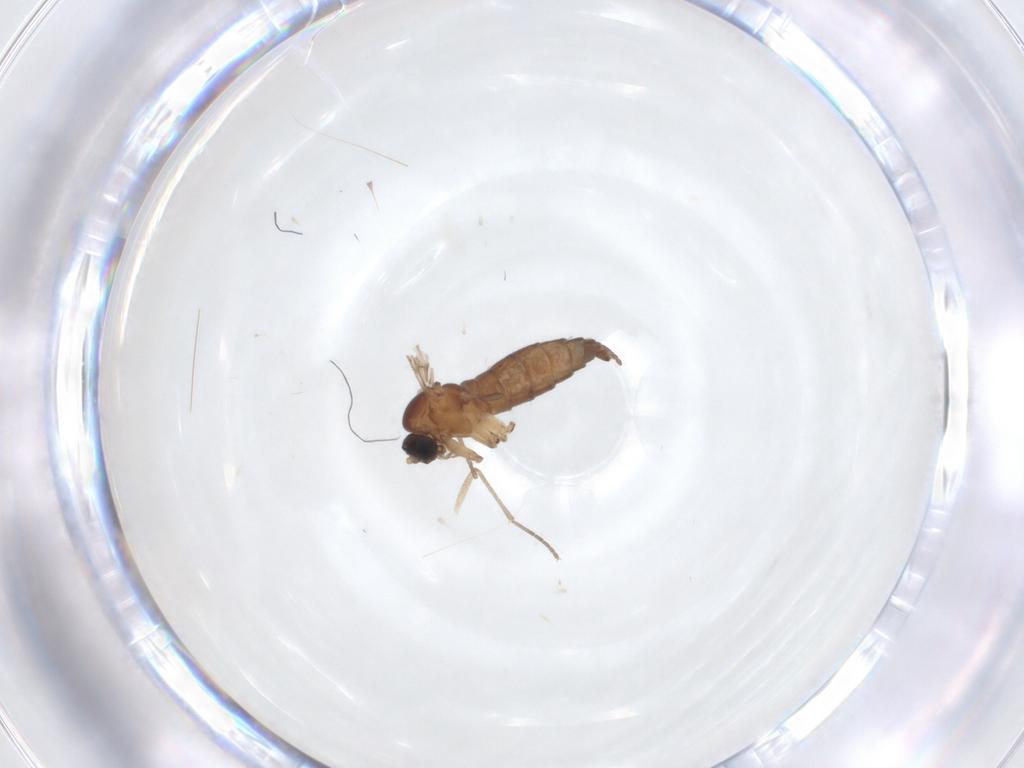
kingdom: Animalia
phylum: Arthropoda
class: Insecta
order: Diptera
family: Sciaridae
